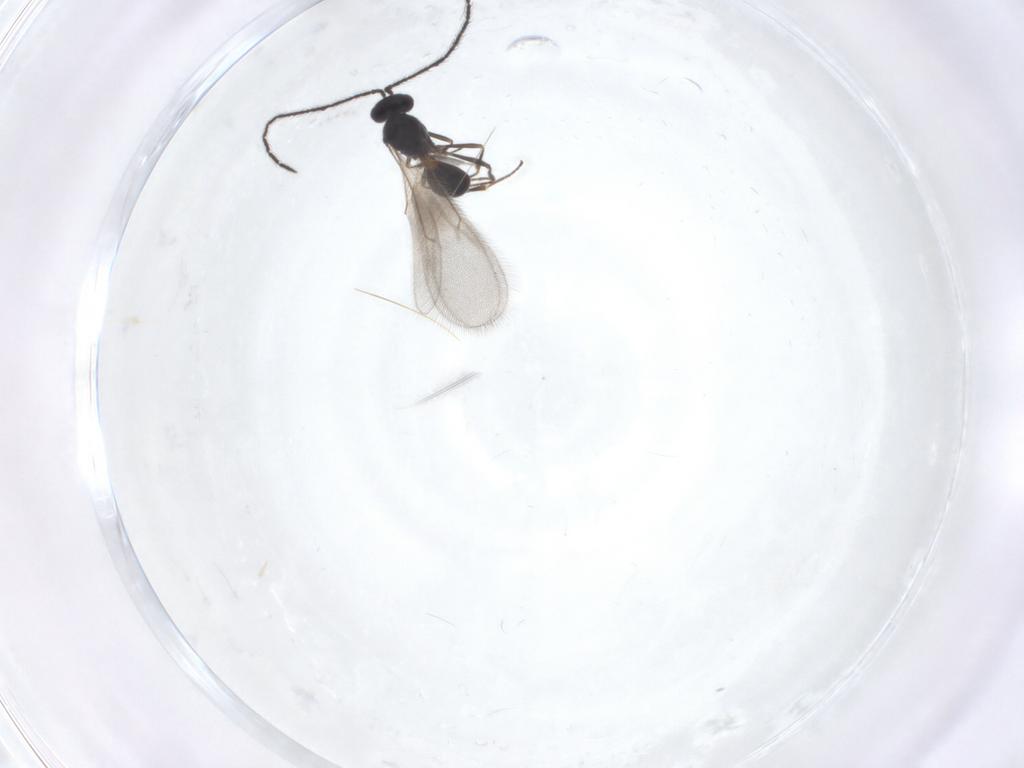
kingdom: Animalia
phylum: Arthropoda
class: Insecta
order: Hymenoptera
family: Scelionidae
